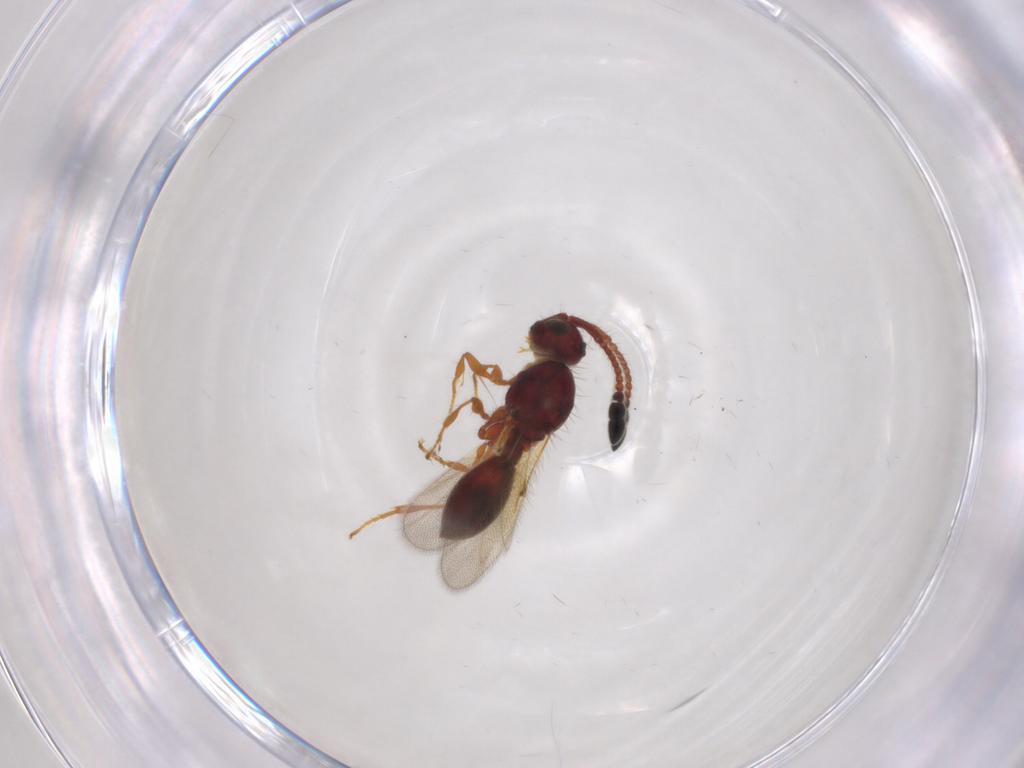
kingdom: Animalia
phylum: Arthropoda
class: Insecta
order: Hymenoptera
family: Diapriidae
